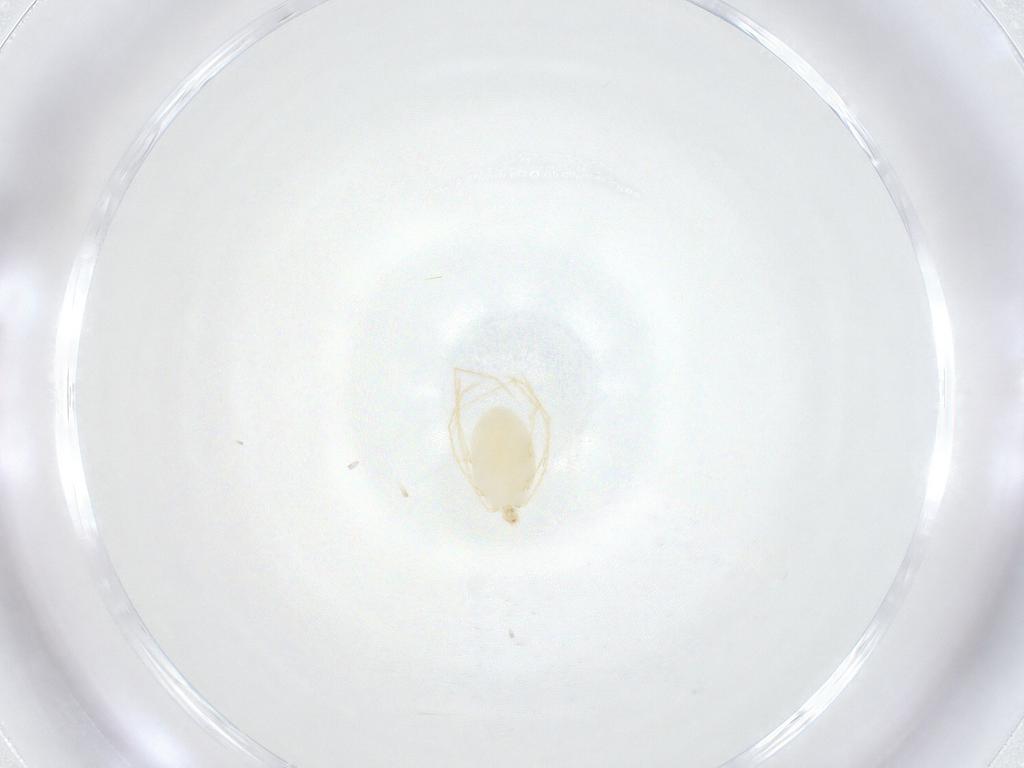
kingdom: Animalia
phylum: Arthropoda
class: Arachnida
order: Trombidiformes
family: Erythraeidae
